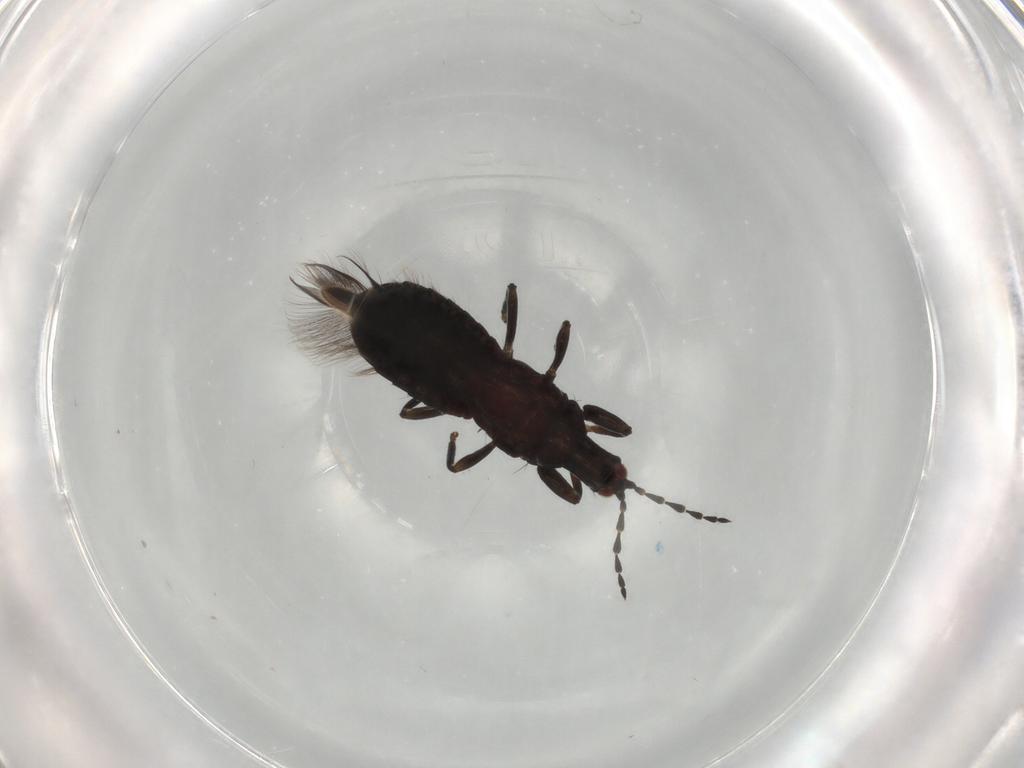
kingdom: Animalia
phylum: Arthropoda
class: Insecta
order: Thysanoptera
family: Phlaeothripidae
